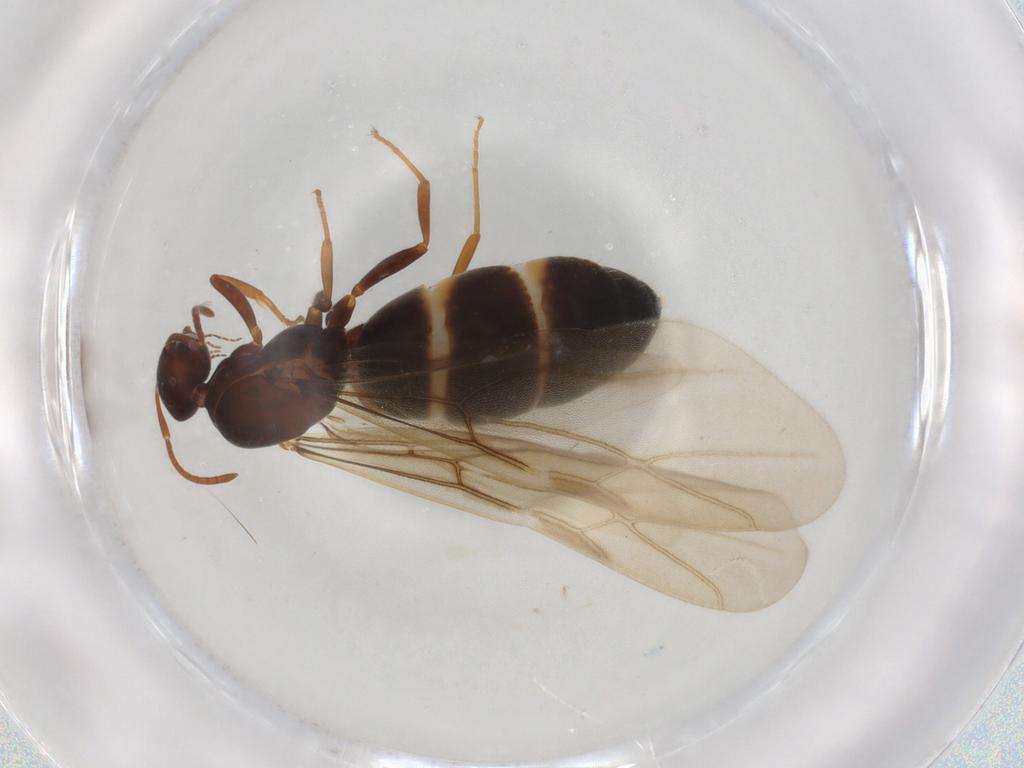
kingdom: Animalia
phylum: Arthropoda
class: Insecta
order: Hymenoptera
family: Formicidae
